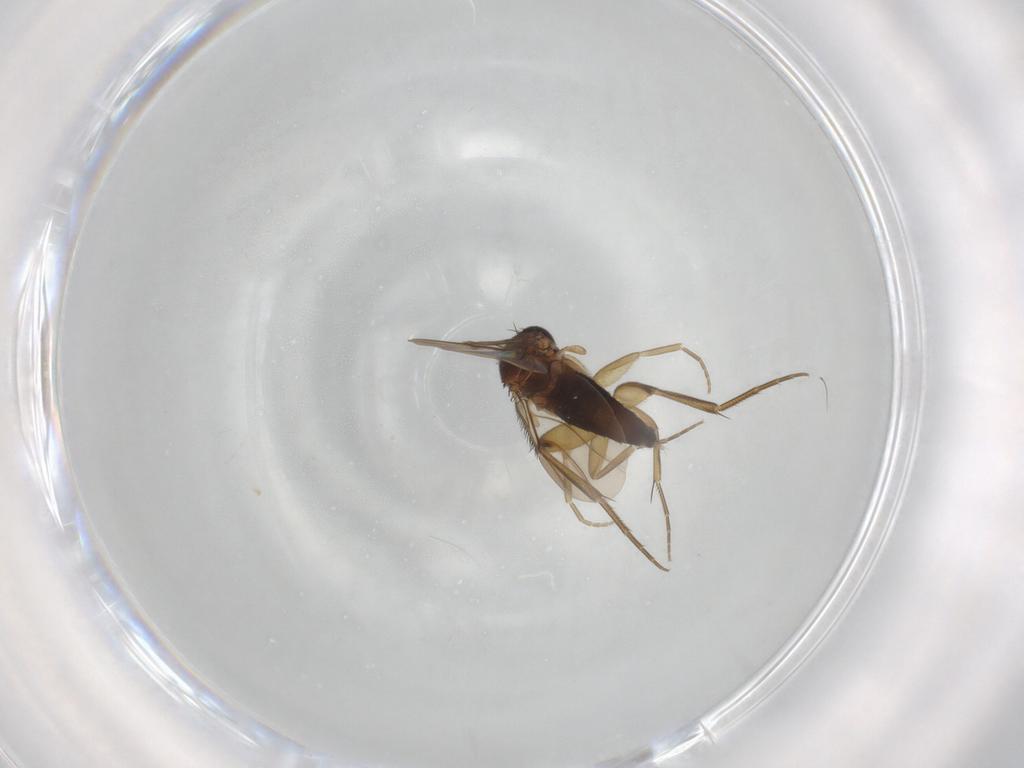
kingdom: Animalia
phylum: Arthropoda
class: Insecta
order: Diptera
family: Phoridae
